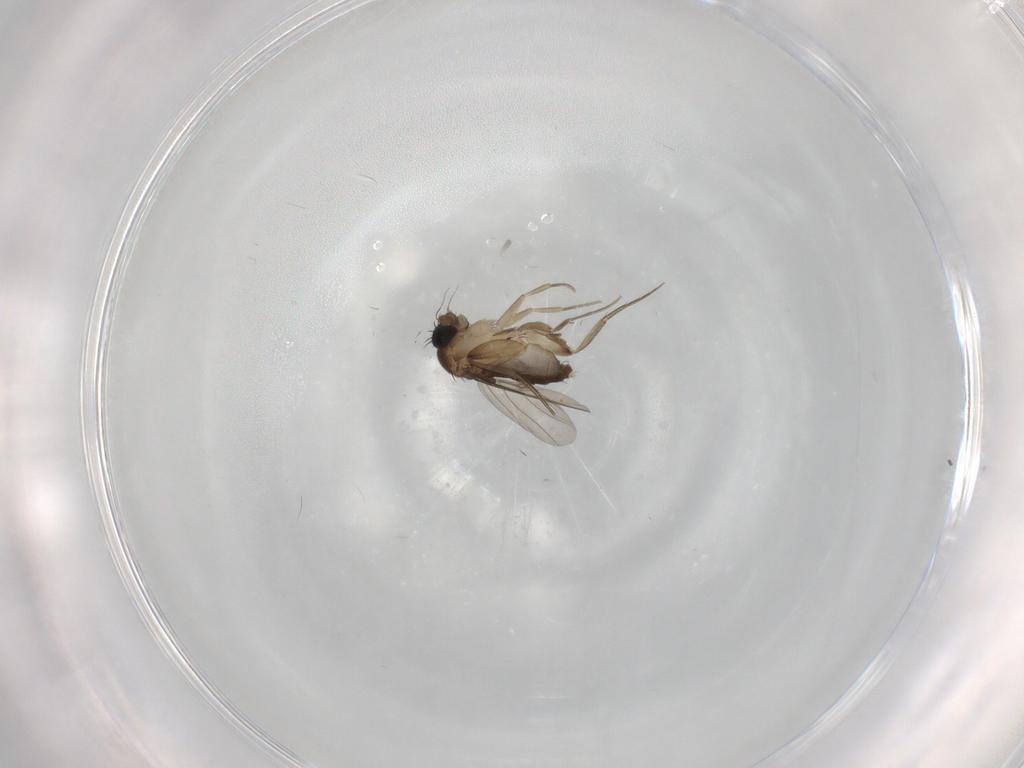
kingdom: Animalia
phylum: Arthropoda
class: Insecta
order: Diptera
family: Phoridae
